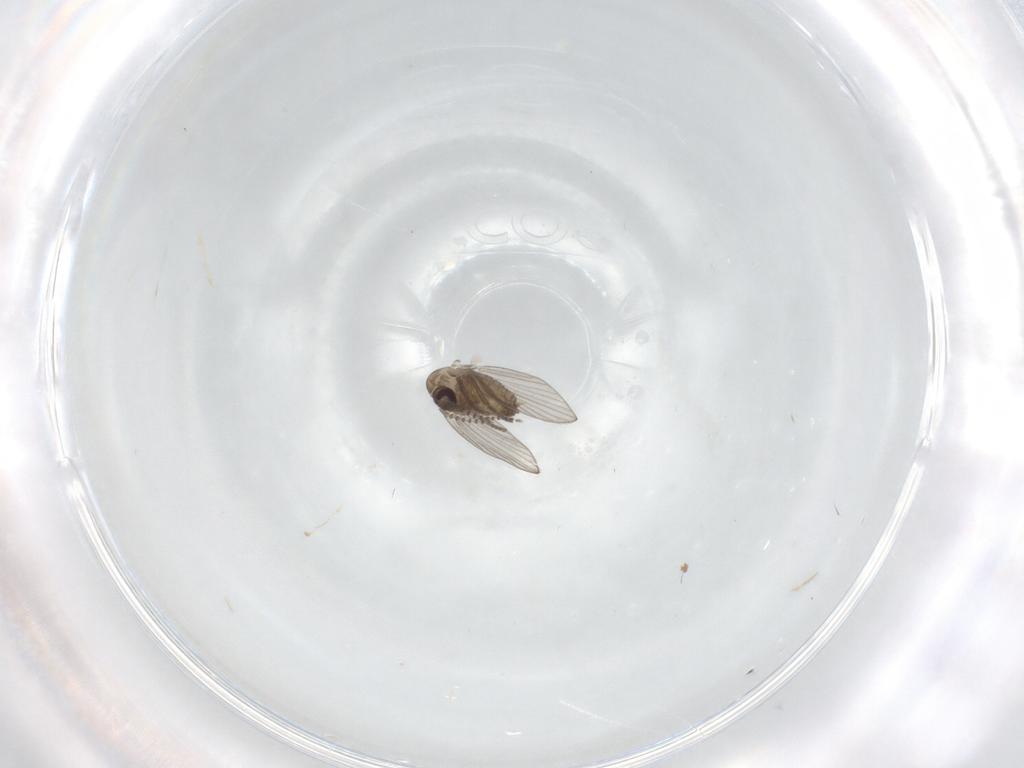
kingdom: Animalia
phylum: Arthropoda
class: Insecta
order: Diptera
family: Psychodidae
